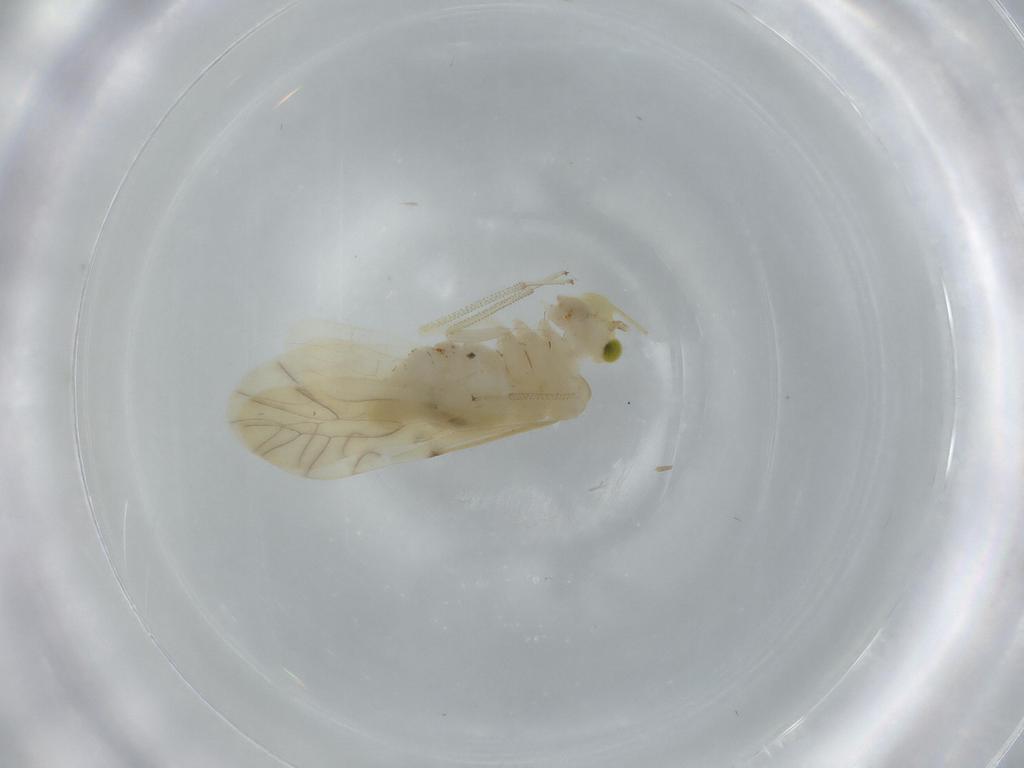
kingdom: Animalia
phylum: Arthropoda
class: Insecta
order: Psocodea
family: Caeciliusidae
